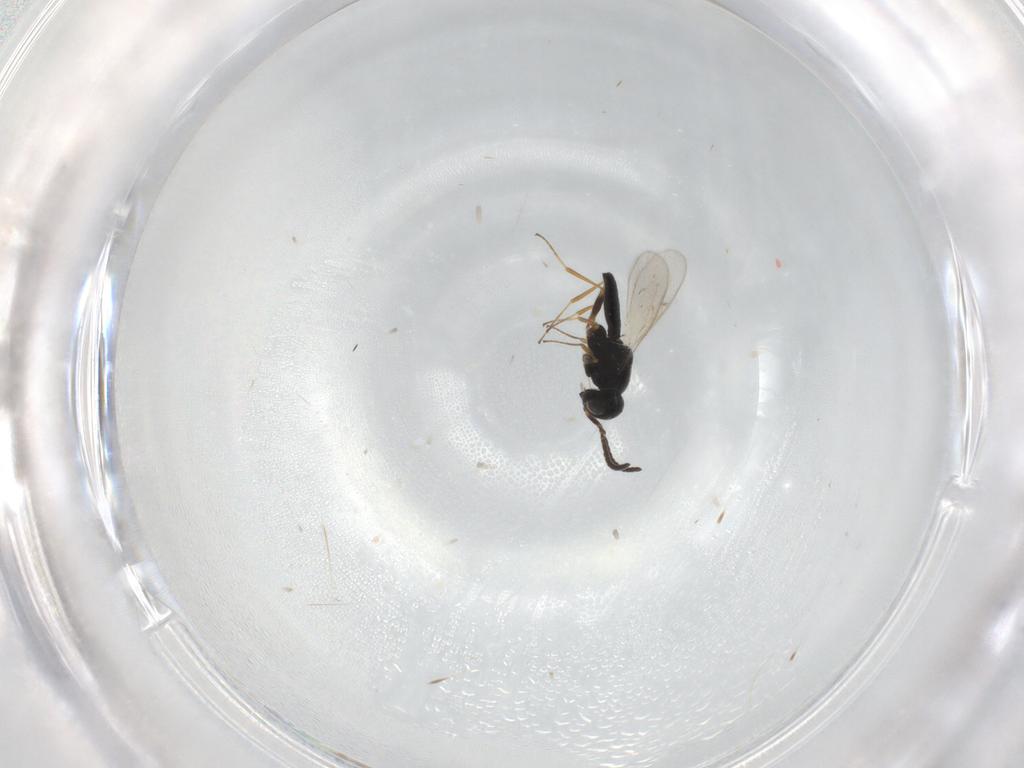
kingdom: Animalia
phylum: Arthropoda
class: Insecta
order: Hymenoptera
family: Scelionidae
